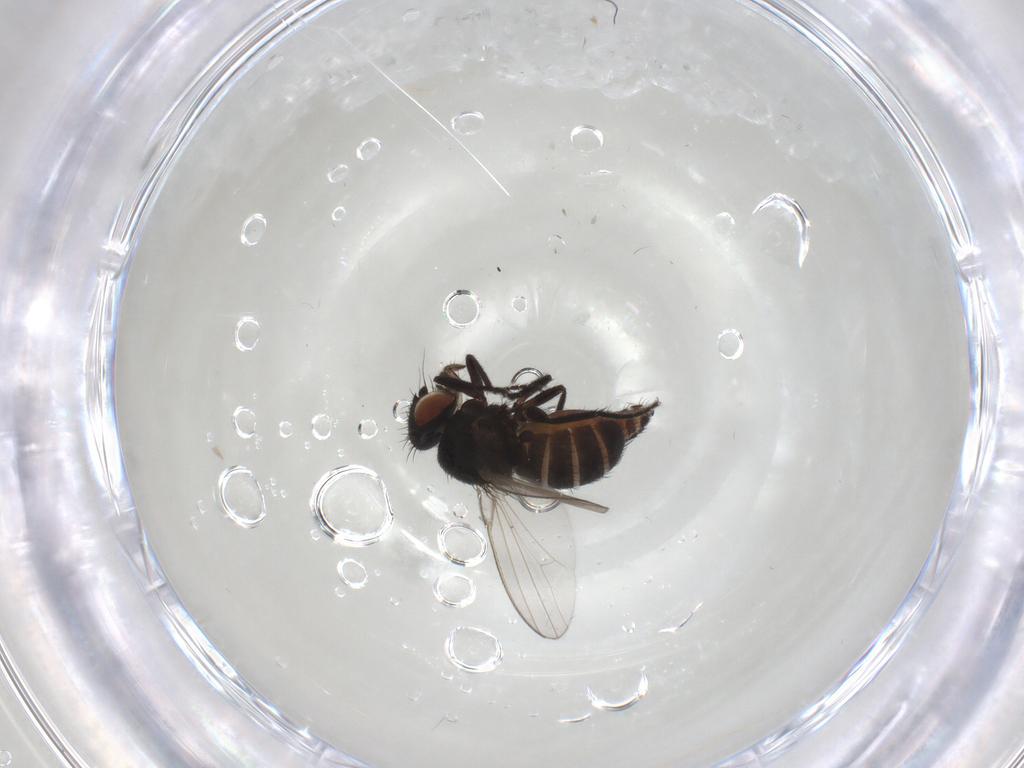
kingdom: Animalia
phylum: Arthropoda
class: Insecta
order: Diptera
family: Milichiidae
